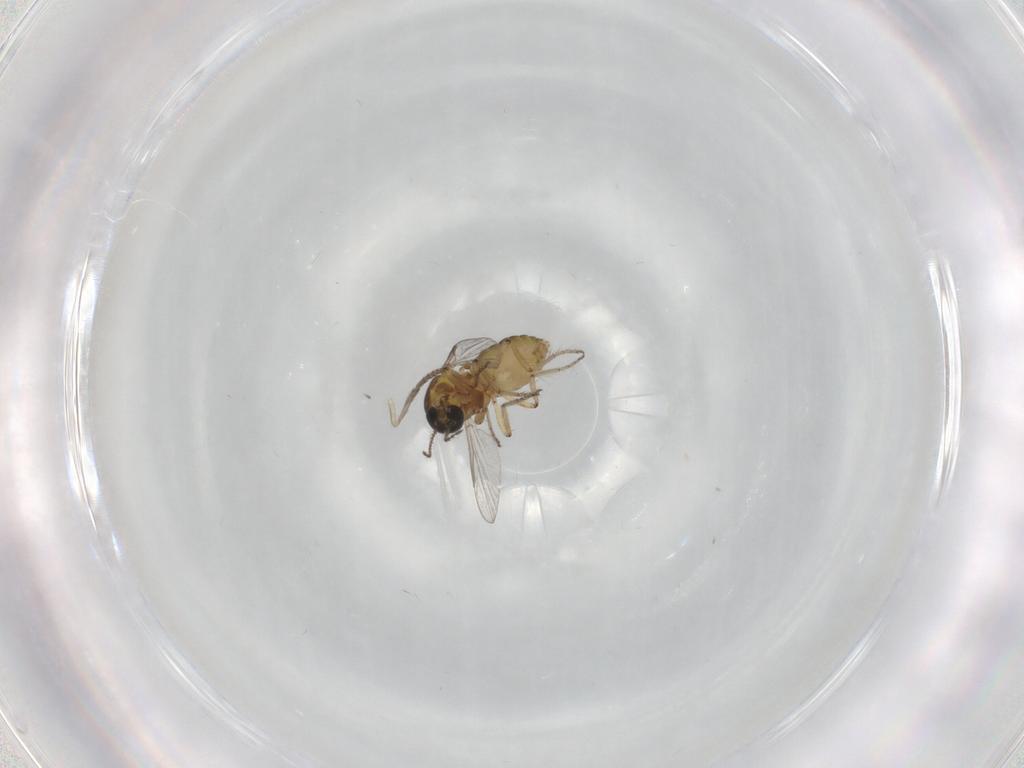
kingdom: Animalia
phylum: Arthropoda
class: Insecta
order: Diptera
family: Ceratopogonidae
